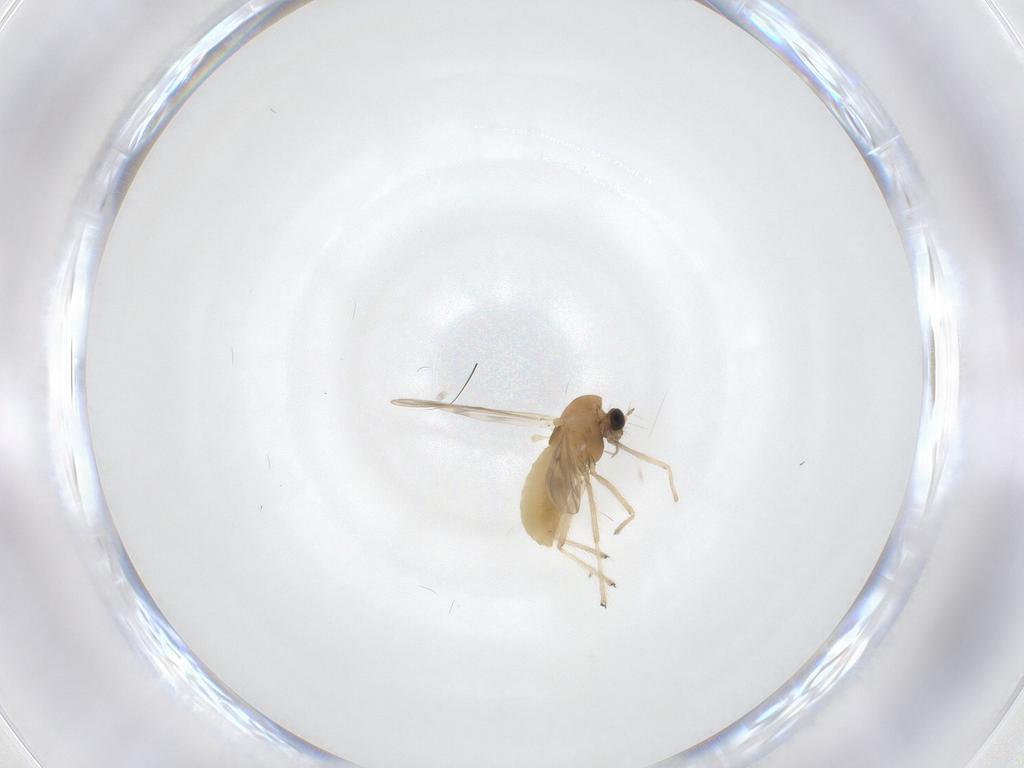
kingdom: Animalia
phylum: Arthropoda
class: Insecta
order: Diptera
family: Chironomidae
